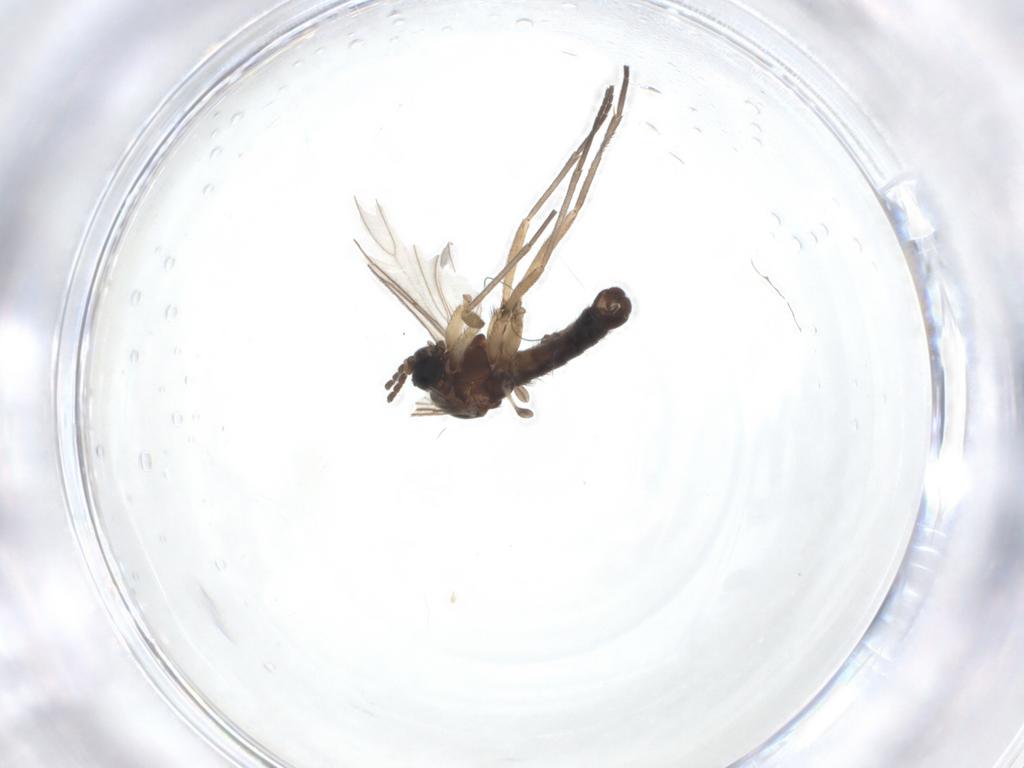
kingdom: Animalia
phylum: Arthropoda
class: Insecta
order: Diptera
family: Sciaridae
